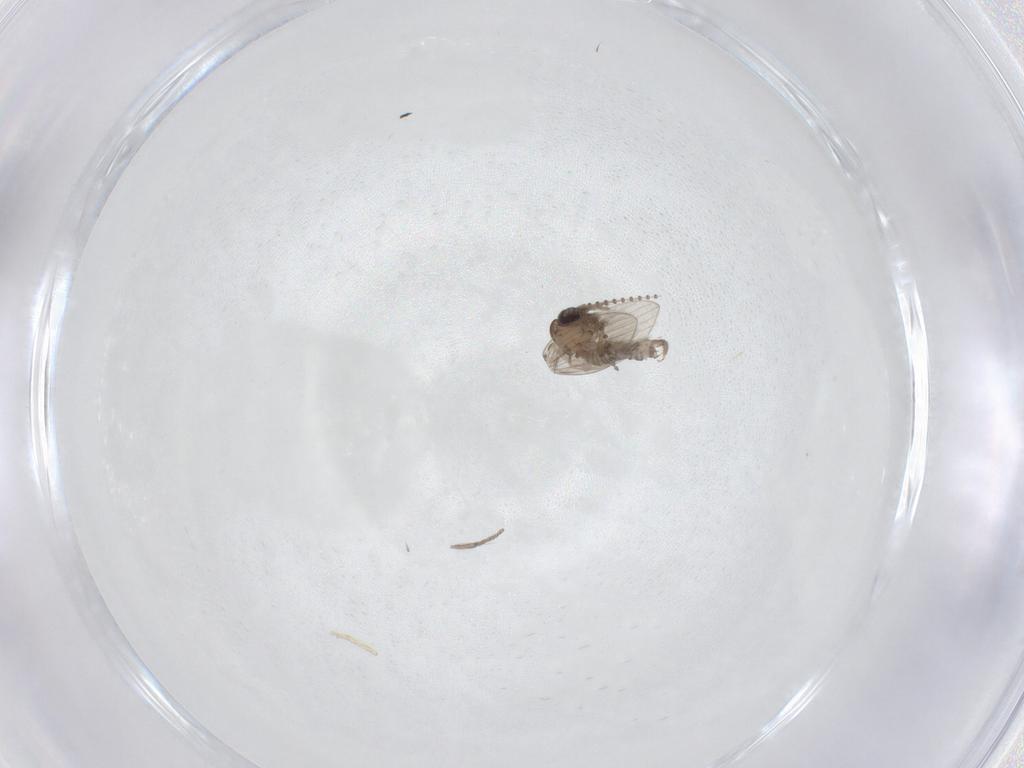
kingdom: Animalia
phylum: Arthropoda
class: Insecta
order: Diptera
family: Psychodidae
